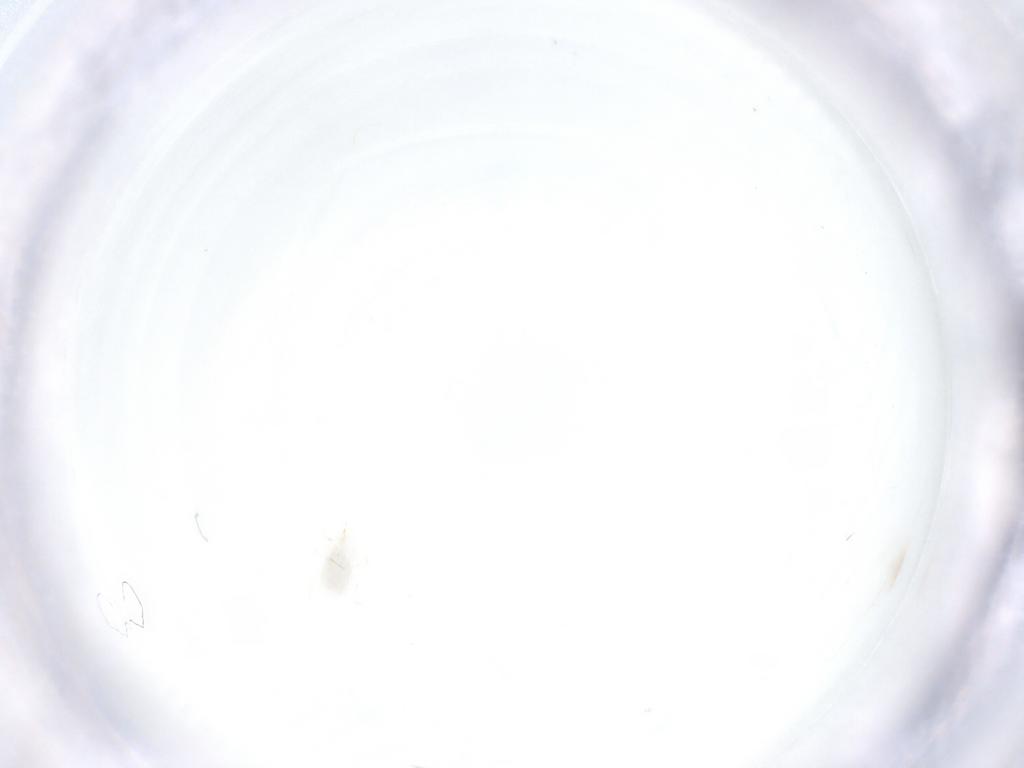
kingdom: Animalia
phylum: Arthropoda
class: Arachnida
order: Mesostigmata
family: Phytoseiidae
